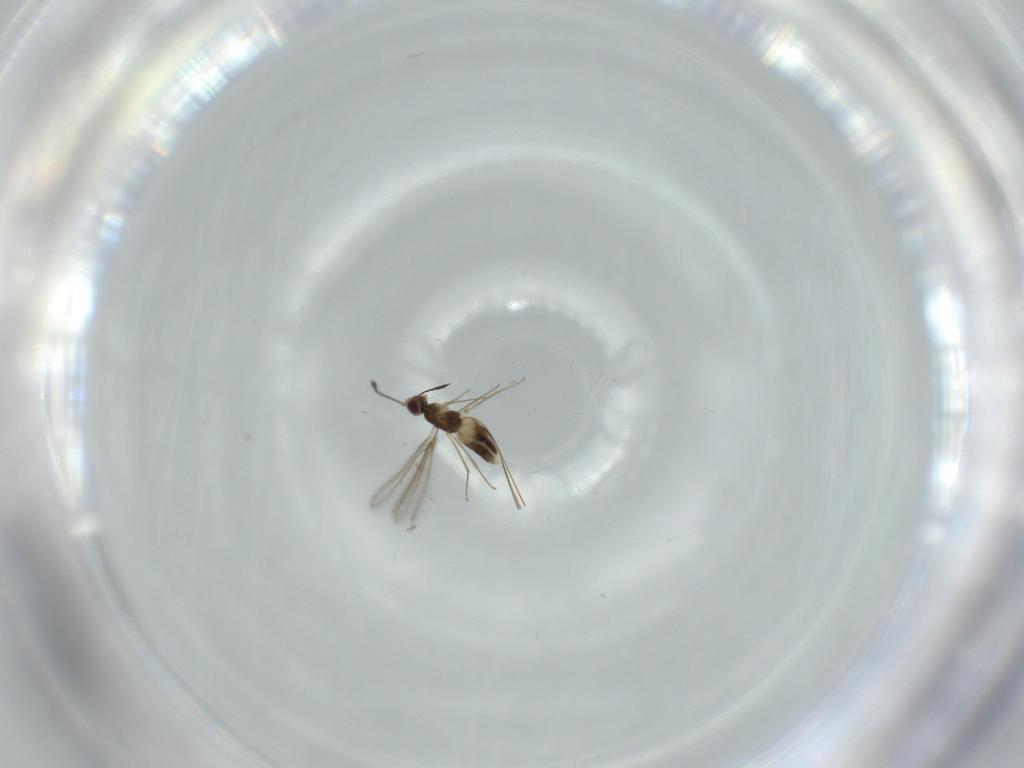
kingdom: Animalia
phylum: Arthropoda
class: Insecta
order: Hymenoptera
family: Mymaridae
